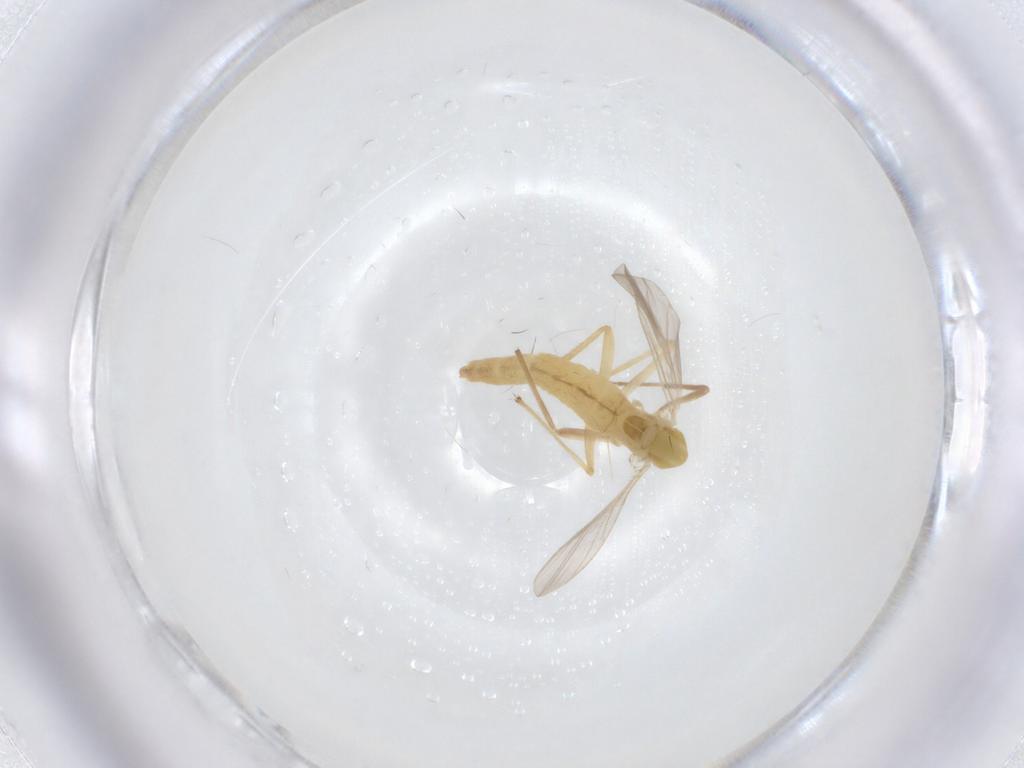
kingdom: Animalia
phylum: Arthropoda
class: Insecta
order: Diptera
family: Chironomidae
